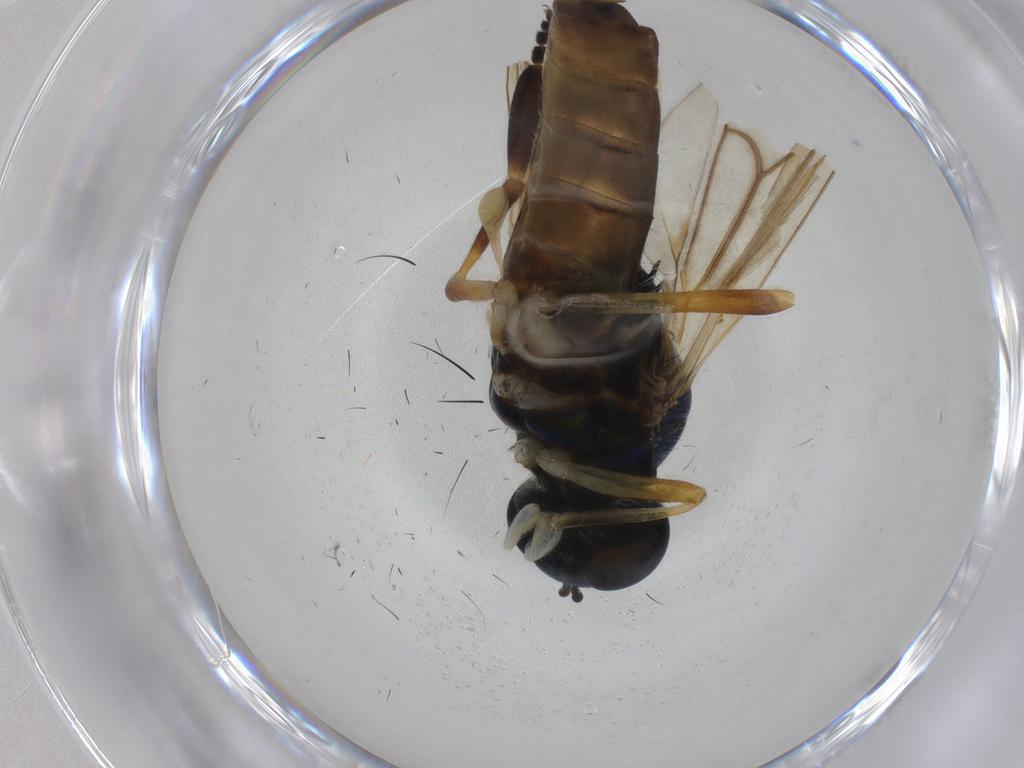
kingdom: Animalia
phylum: Arthropoda
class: Insecta
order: Diptera
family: Stratiomyidae
